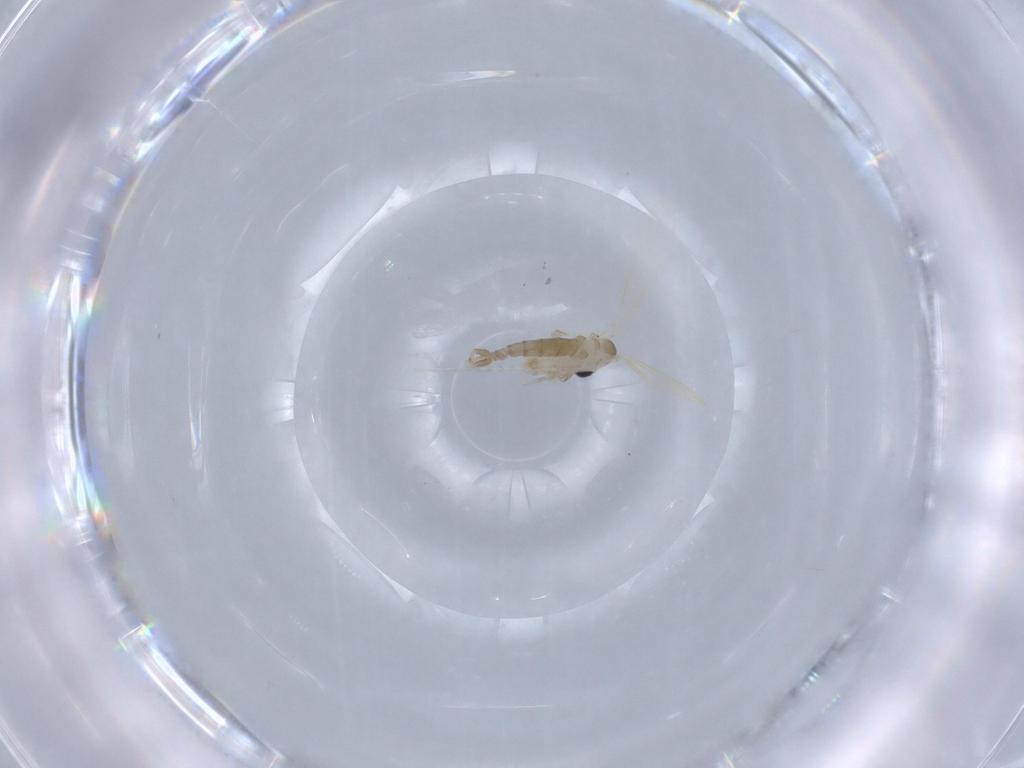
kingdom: Animalia
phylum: Arthropoda
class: Insecta
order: Diptera
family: Psychodidae
